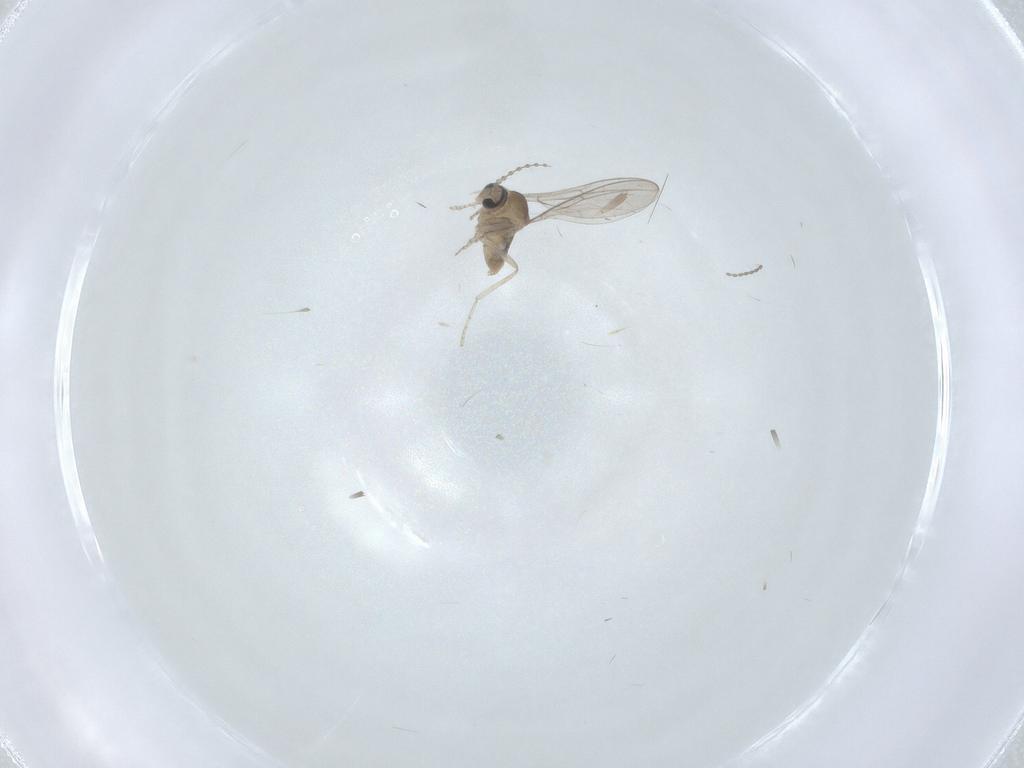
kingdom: Animalia
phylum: Arthropoda
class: Insecta
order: Diptera
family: Cecidomyiidae
